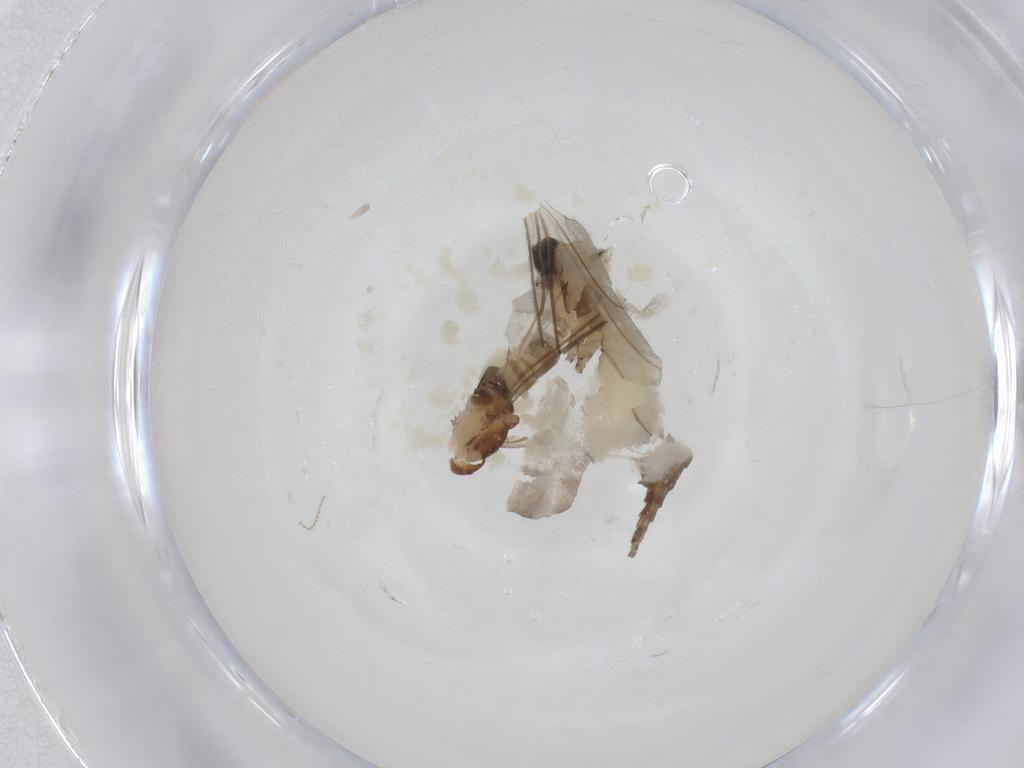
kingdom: Animalia
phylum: Arthropoda
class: Insecta
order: Diptera
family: Sciaridae
